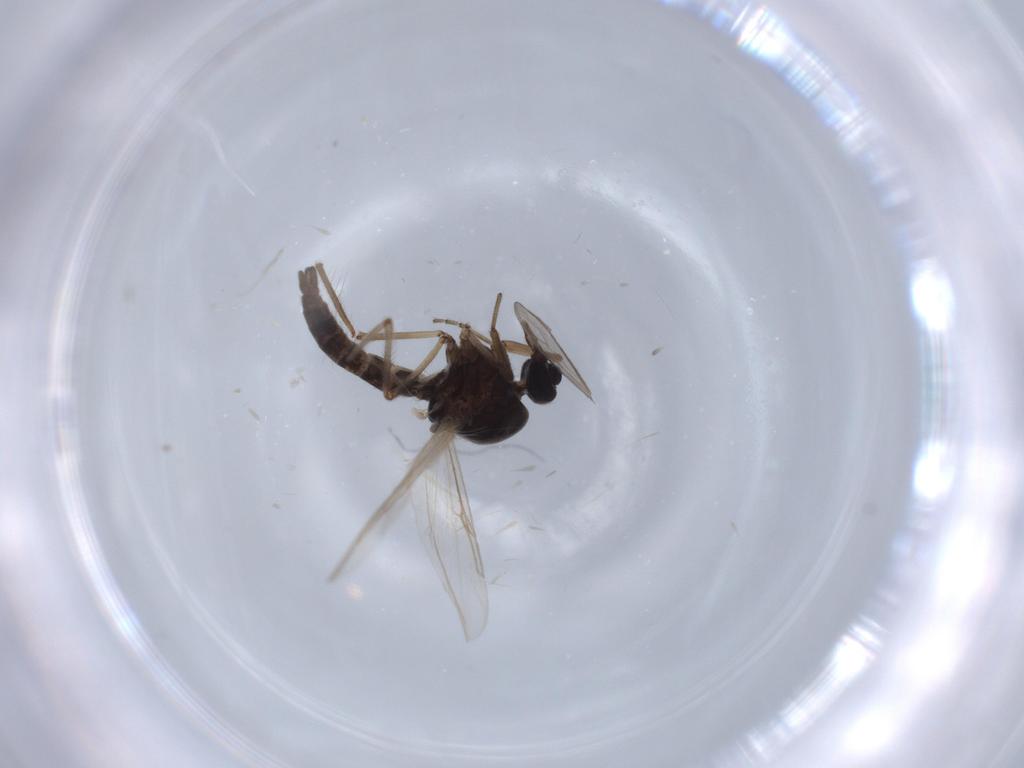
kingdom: Animalia
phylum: Arthropoda
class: Insecta
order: Diptera
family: Ceratopogonidae
